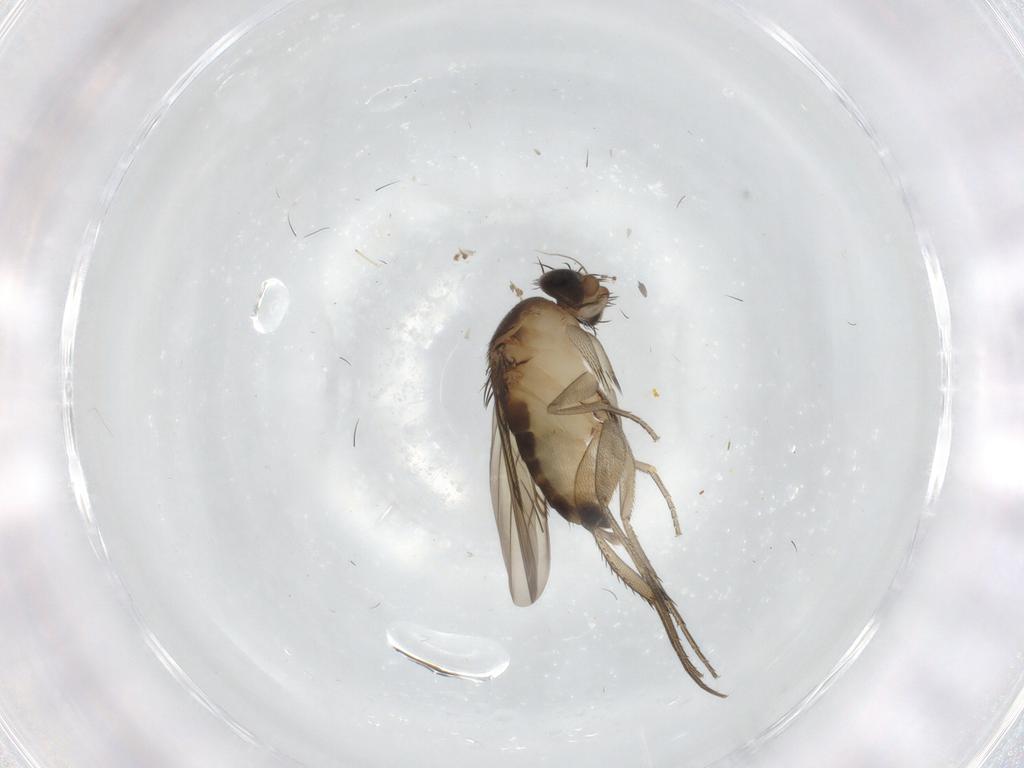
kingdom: Animalia
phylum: Arthropoda
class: Insecta
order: Diptera
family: Phoridae
